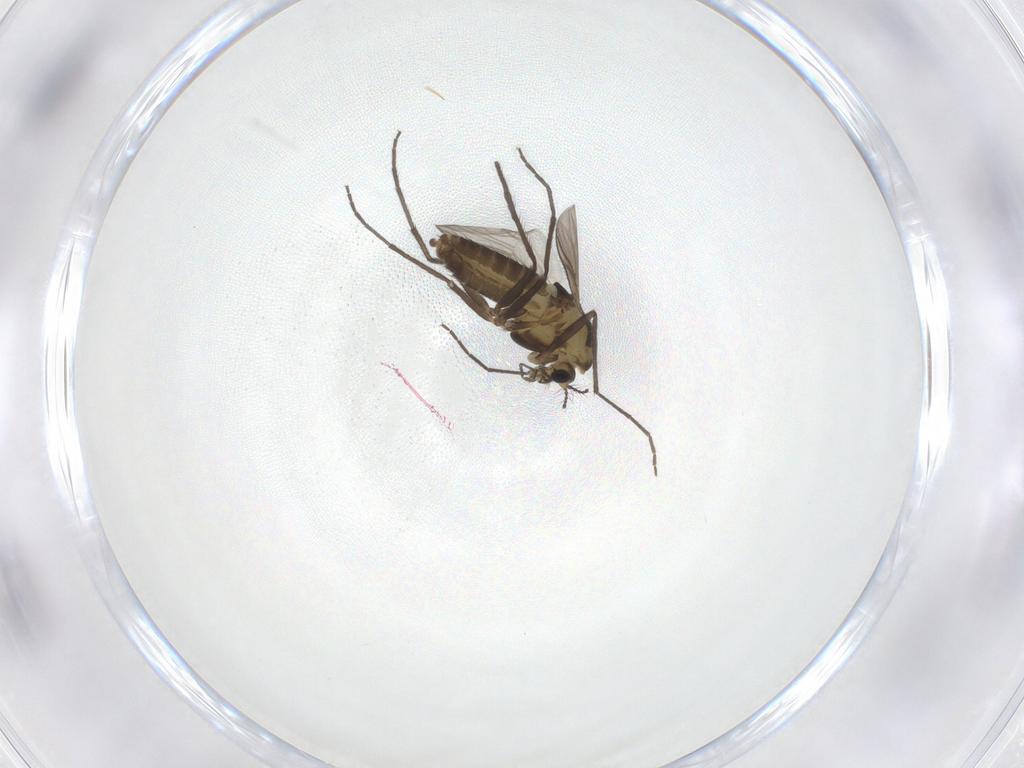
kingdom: Animalia
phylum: Arthropoda
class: Insecta
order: Diptera
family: Chironomidae
